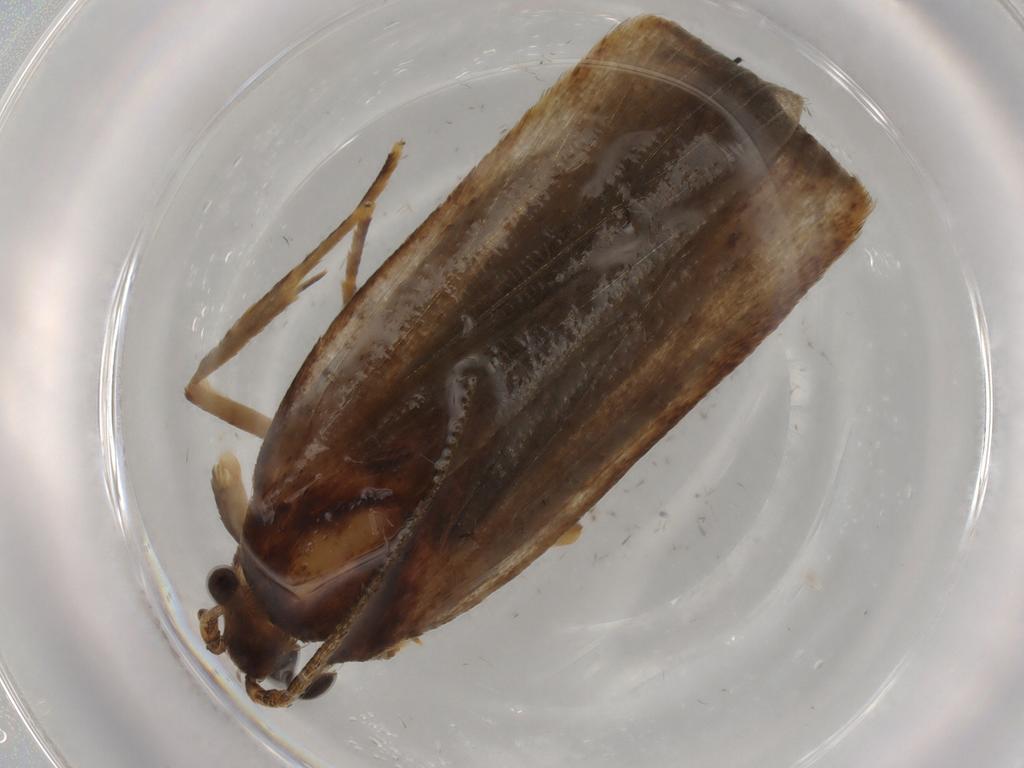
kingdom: Animalia
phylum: Arthropoda
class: Insecta
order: Lepidoptera
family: Autostichidae
